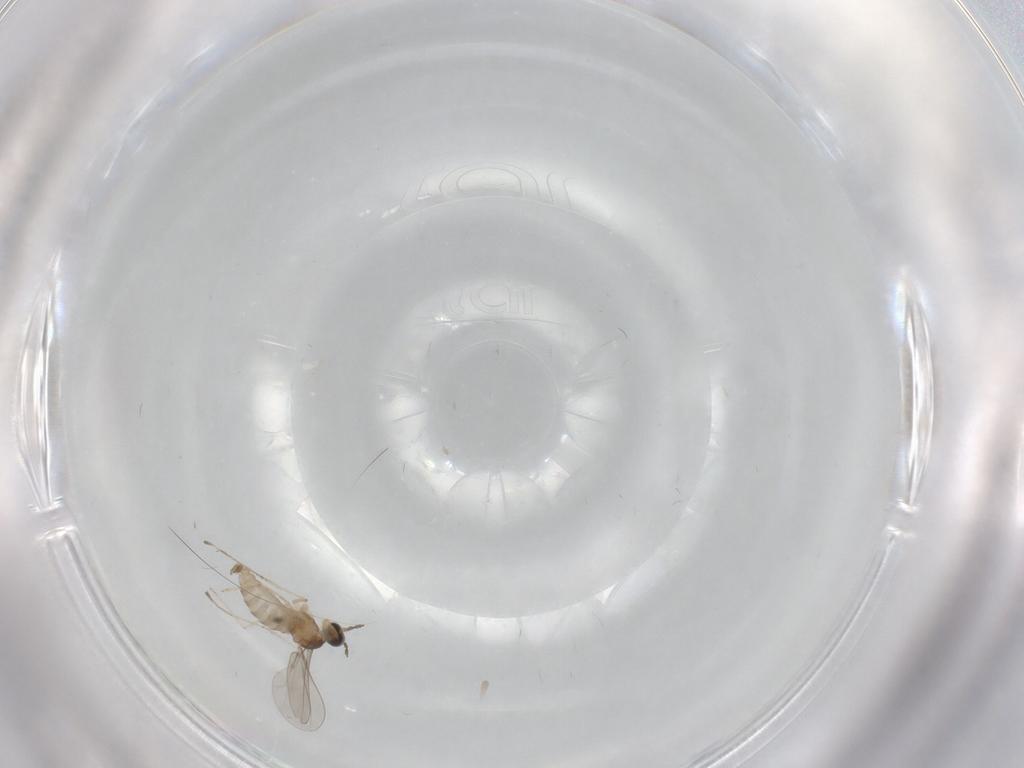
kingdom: Animalia
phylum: Arthropoda
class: Insecta
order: Diptera
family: Cecidomyiidae
